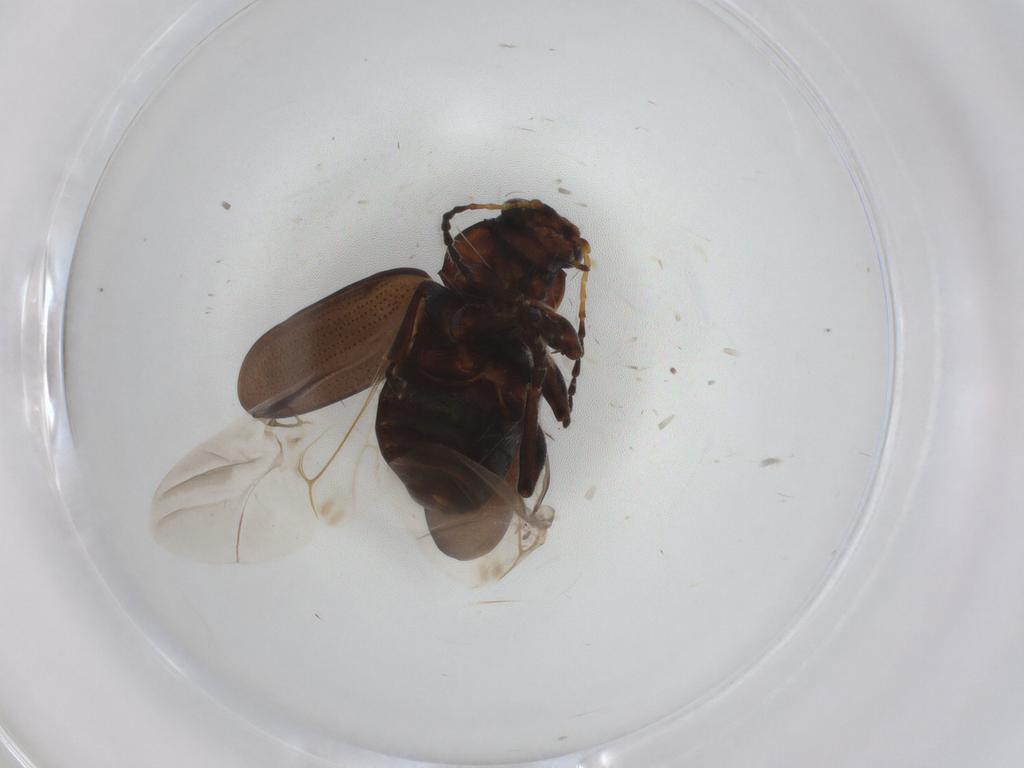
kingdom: Animalia
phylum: Arthropoda
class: Insecta
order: Coleoptera
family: Chrysomelidae
